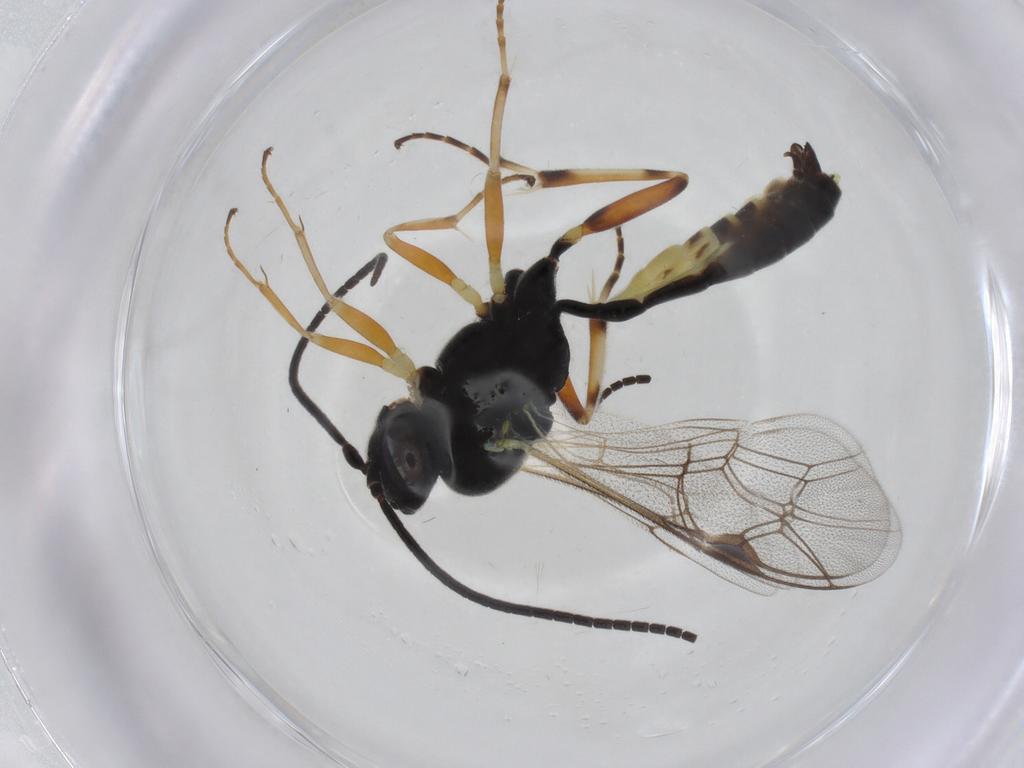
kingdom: Animalia
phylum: Arthropoda
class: Insecta
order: Hymenoptera
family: Ichneumonidae
